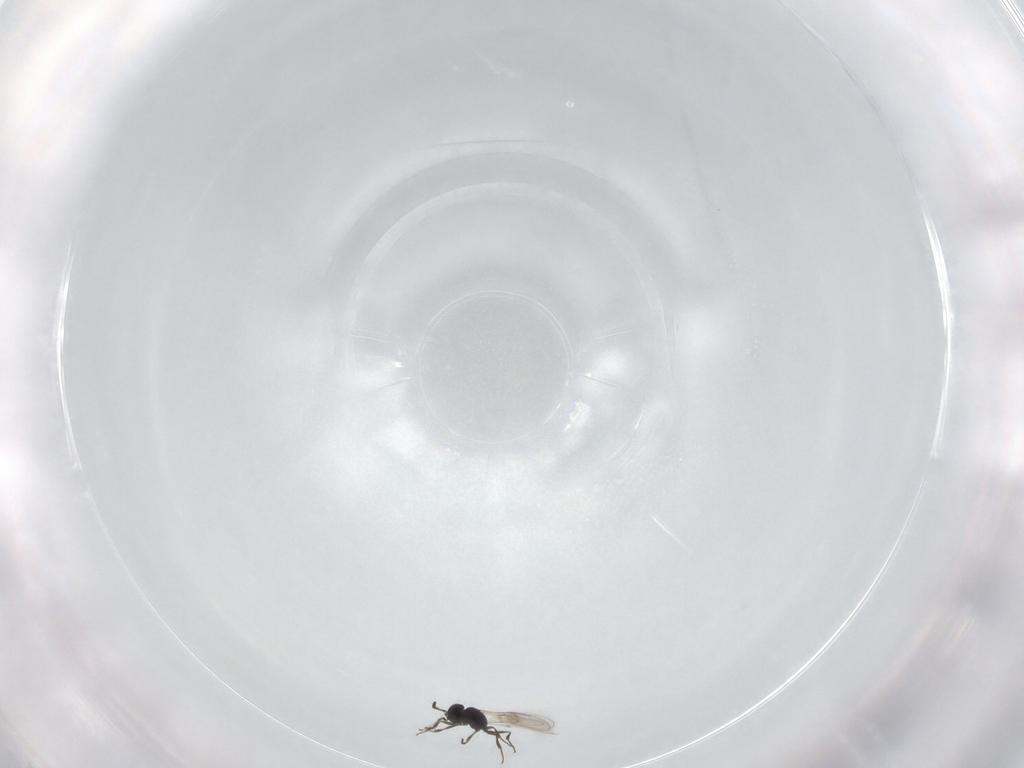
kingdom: Animalia
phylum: Arthropoda
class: Insecta
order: Hymenoptera
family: Scelionidae
